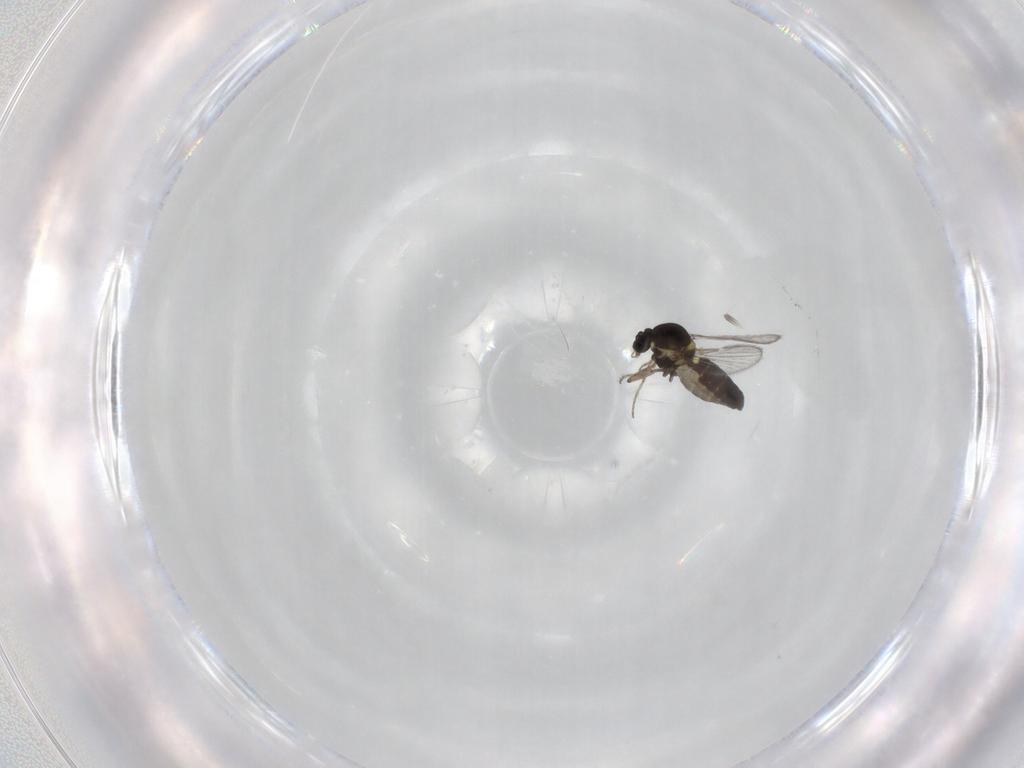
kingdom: Animalia
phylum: Arthropoda
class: Insecta
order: Diptera
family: Ceratopogonidae
